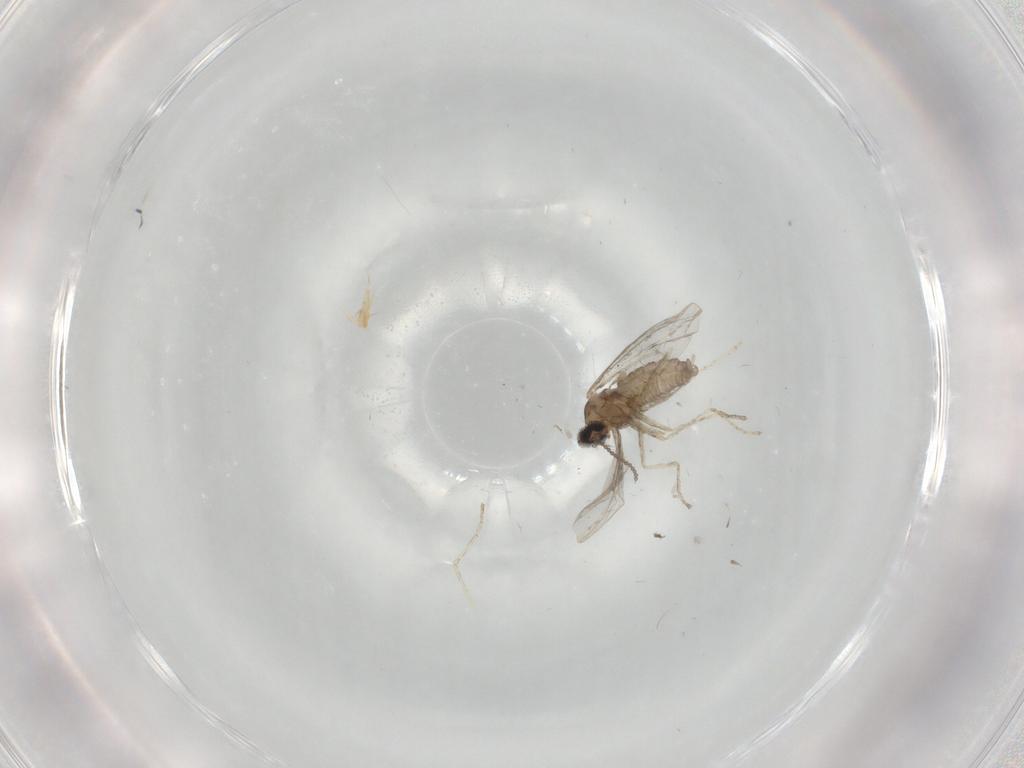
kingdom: Animalia
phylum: Arthropoda
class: Insecta
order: Diptera
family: Cecidomyiidae
